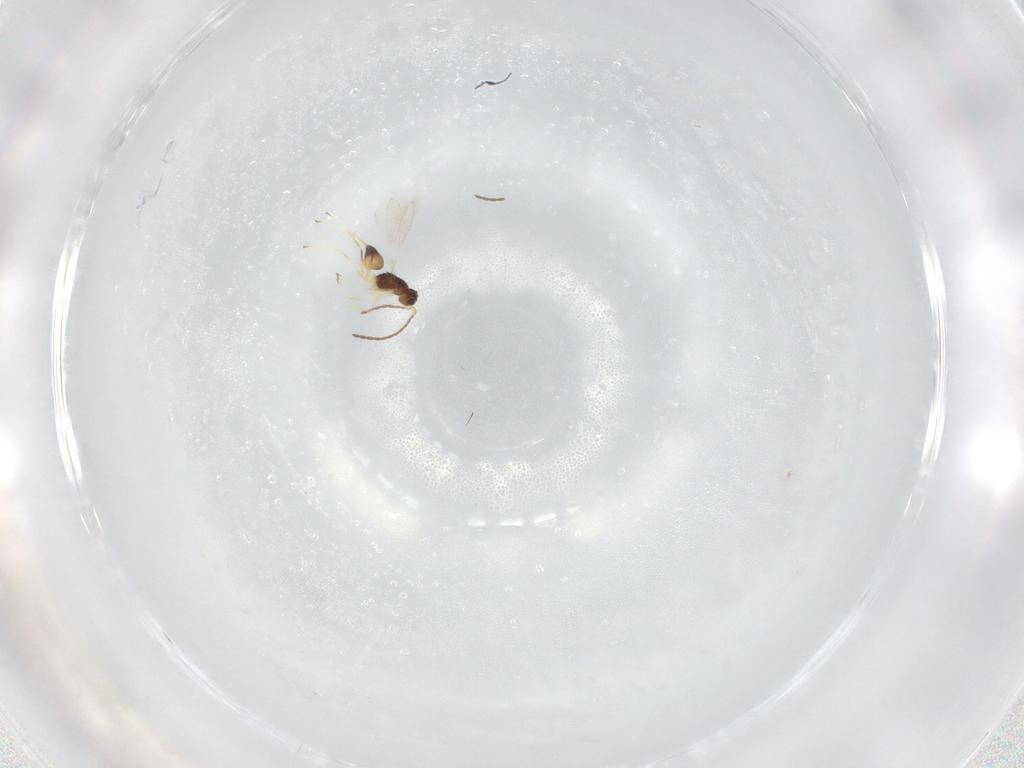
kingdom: Animalia
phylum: Arthropoda
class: Insecta
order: Hymenoptera
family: Mymaridae
